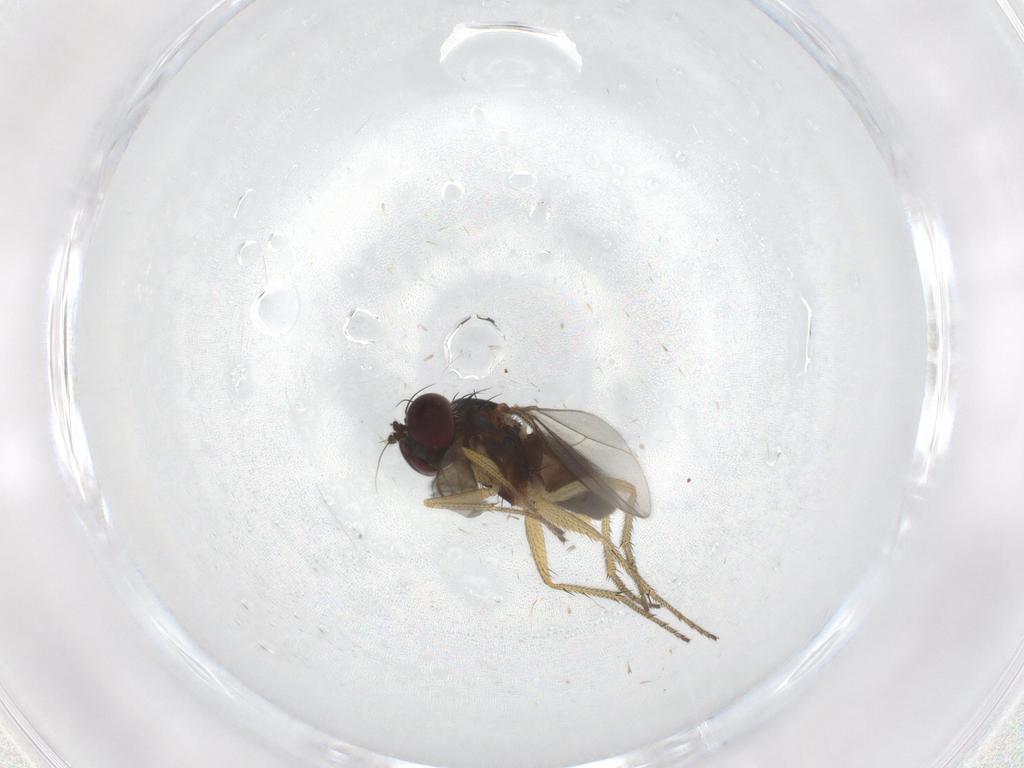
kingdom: Animalia
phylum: Arthropoda
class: Insecta
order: Diptera
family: Dolichopodidae
